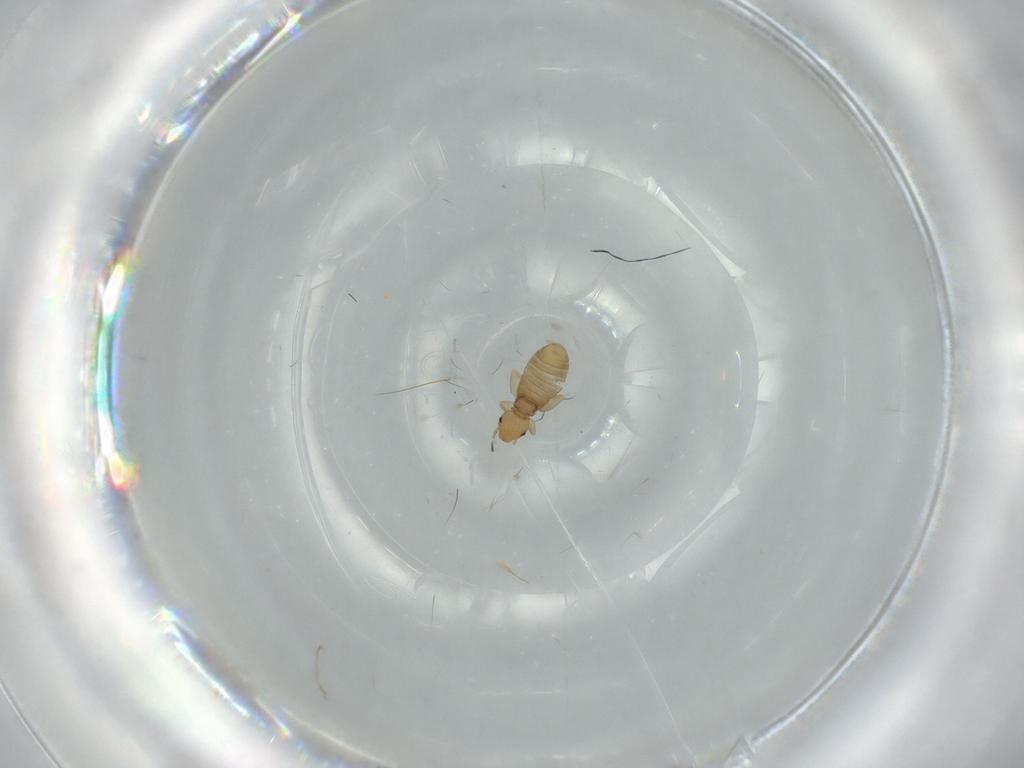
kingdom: Animalia
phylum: Arthropoda
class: Insecta
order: Psocodea
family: Liposcelididae
